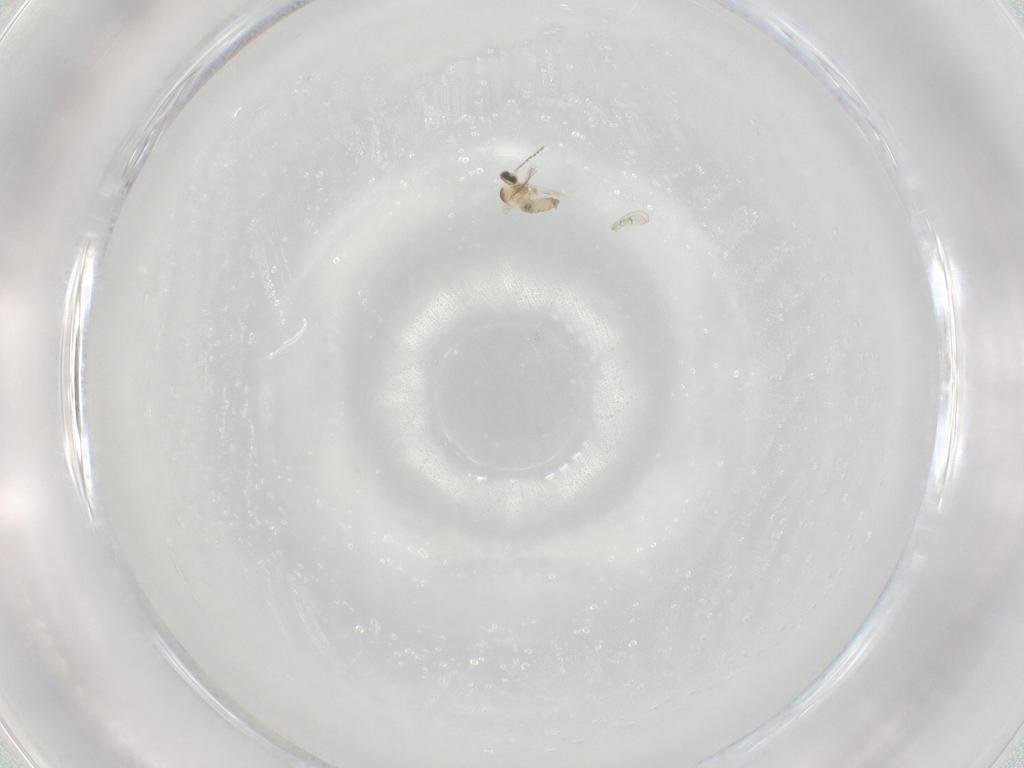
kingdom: Animalia
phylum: Arthropoda
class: Insecta
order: Diptera
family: Cecidomyiidae
